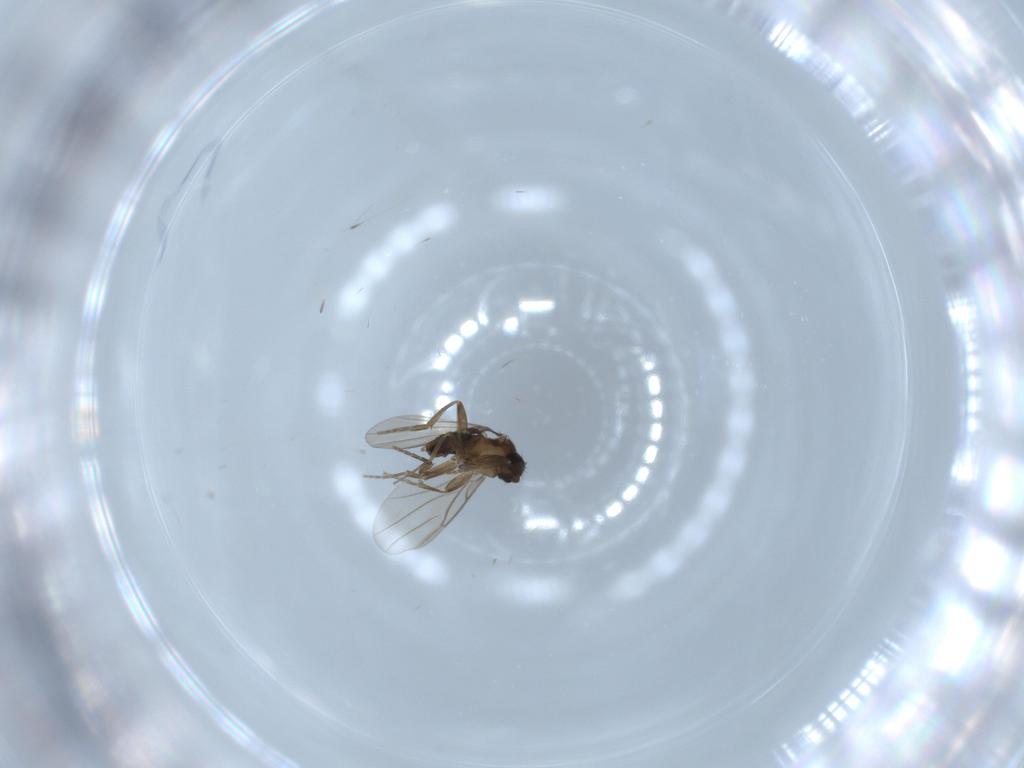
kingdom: Animalia
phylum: Arthropoda
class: Insecta
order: Diptera
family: Phoridae
